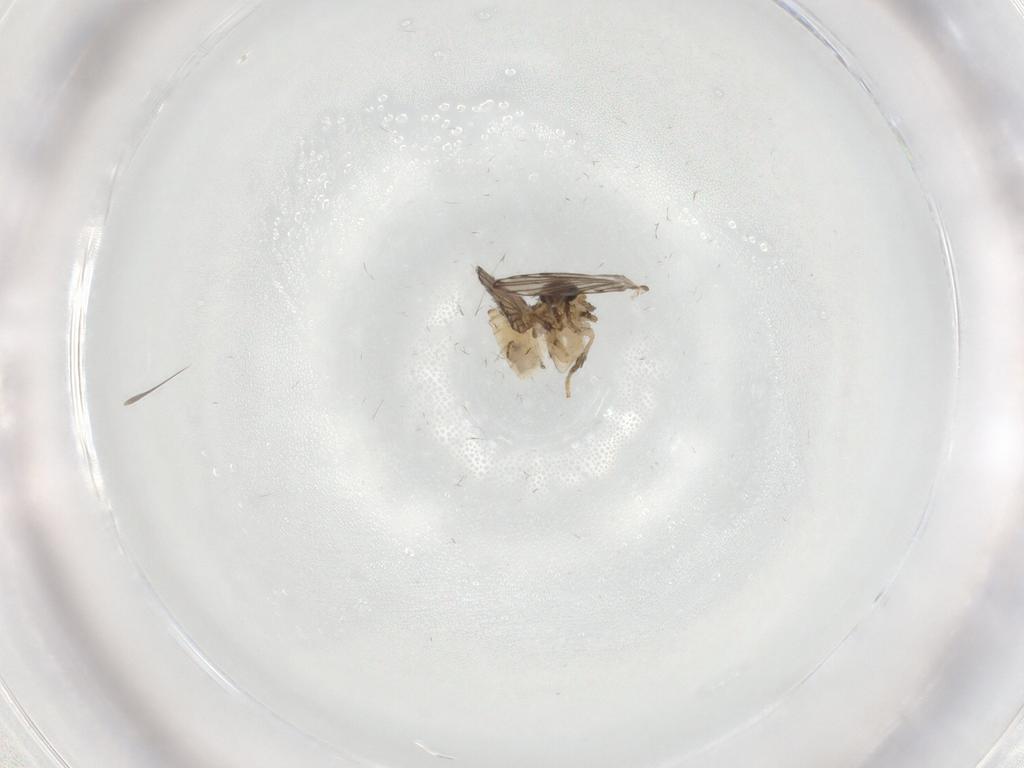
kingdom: Animalia
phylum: Arthropoda
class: Insecta
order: Diptera
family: Psychodidae
